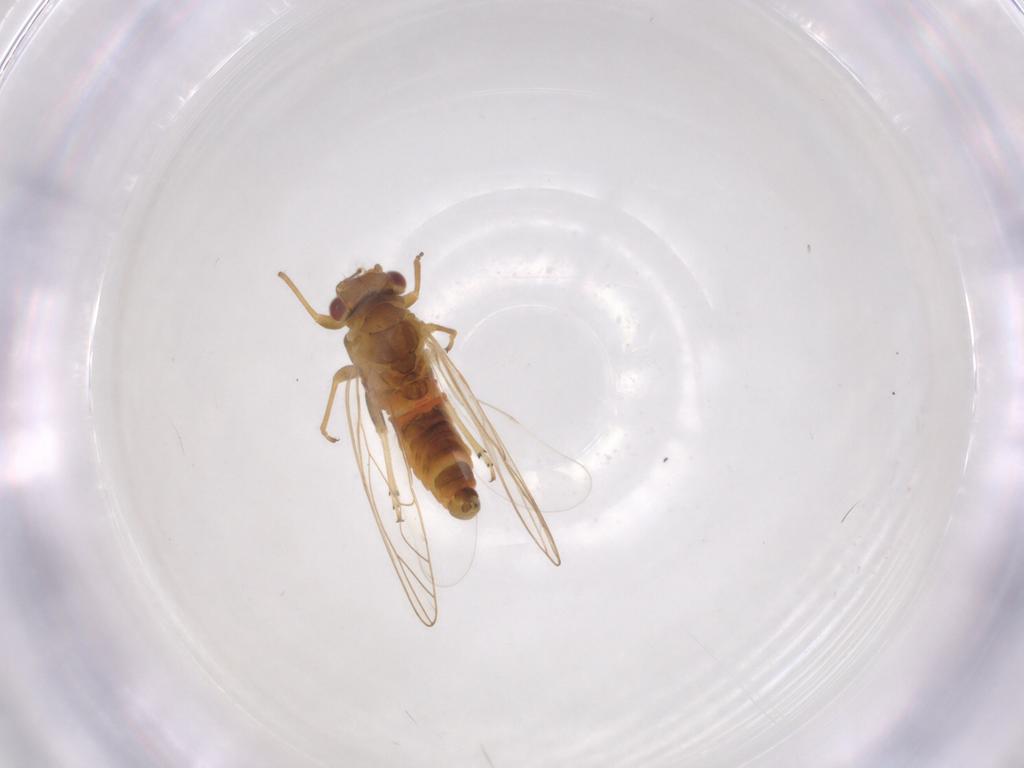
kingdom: Animalia
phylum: Arthropoda
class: Insecta
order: Hemiptera
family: Psyllidae
